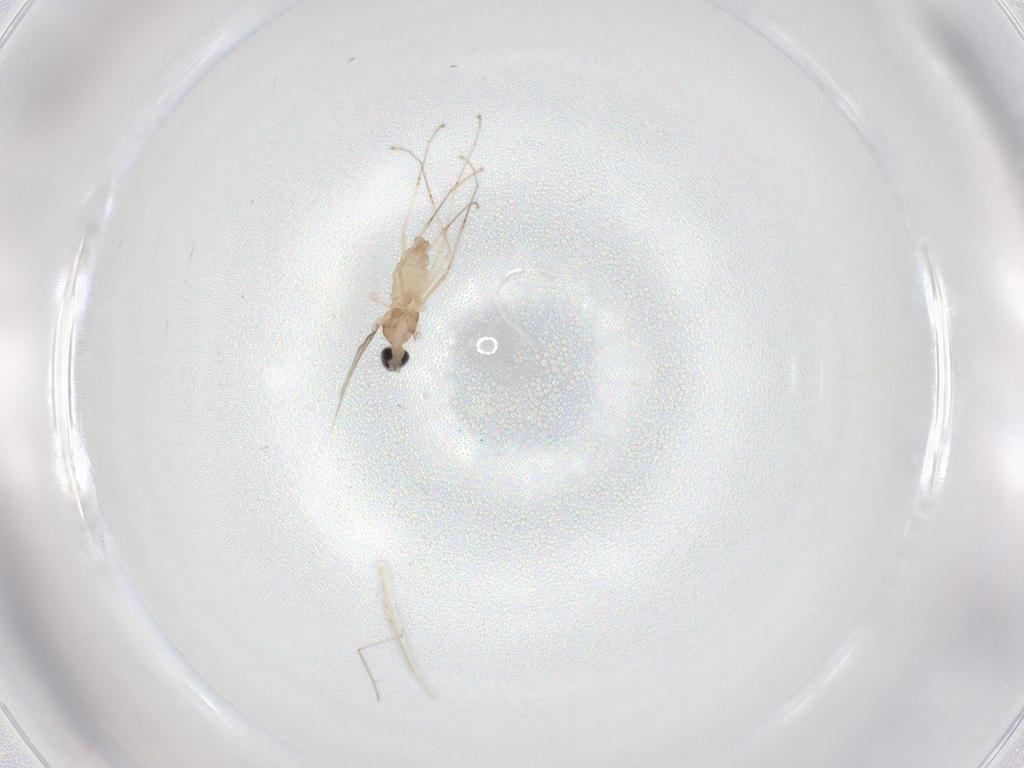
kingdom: Animalia
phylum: Arthropoda
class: Insecta
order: Diptera
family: Cecidomyiidae
